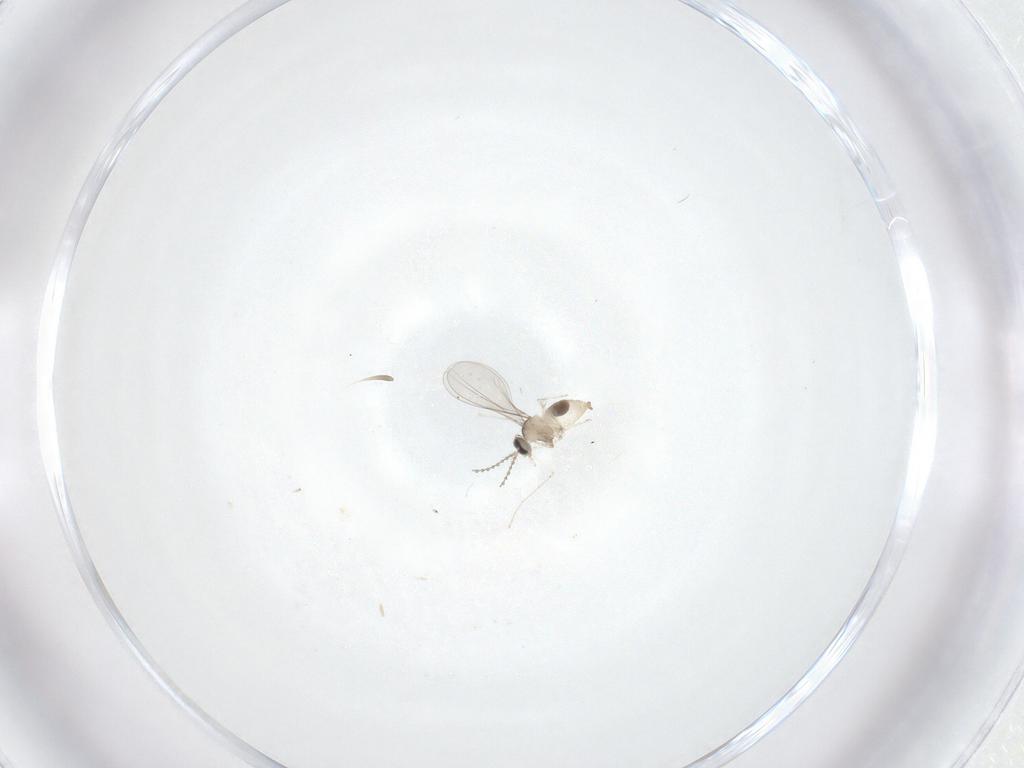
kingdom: Animalia
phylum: Arthropoda
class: Insecta
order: Diptera
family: Cecidomyiidae
